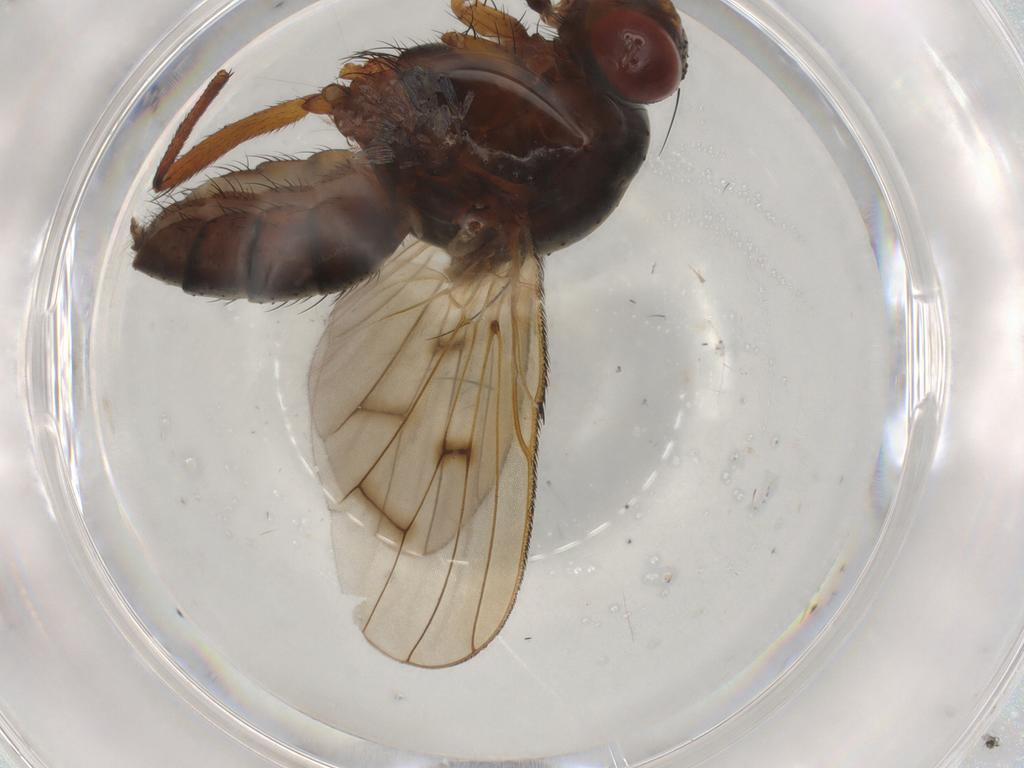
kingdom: Animalia
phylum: Arthropoda
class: Insecta
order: Diptera
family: Anthomyiidae
